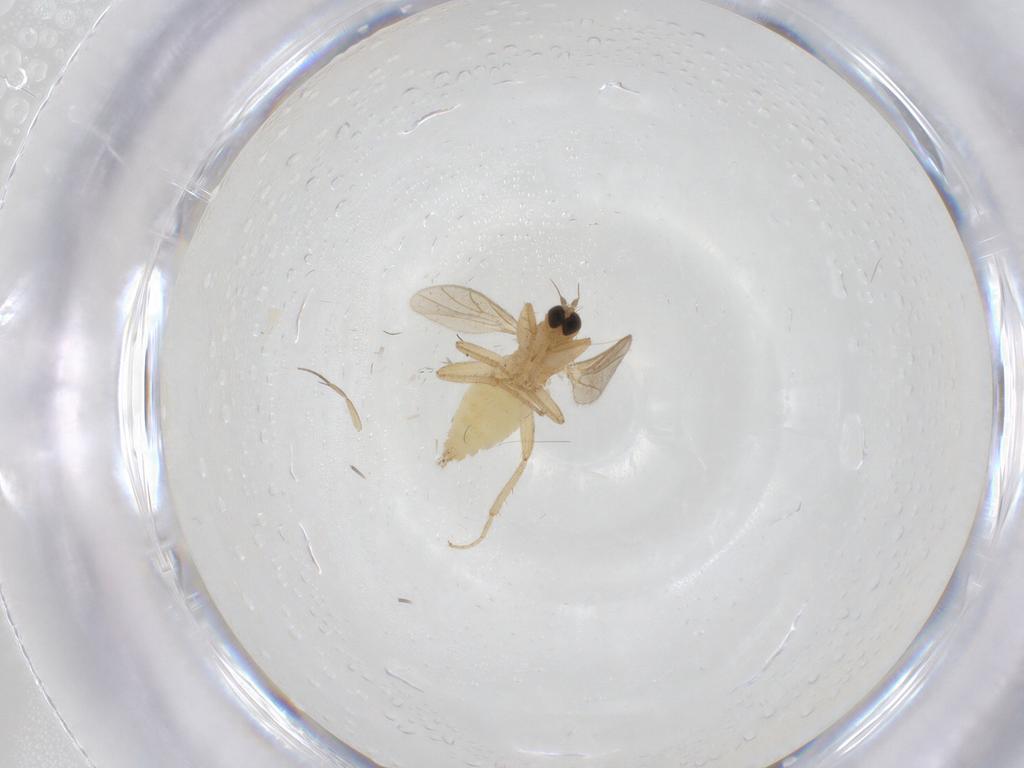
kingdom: Animalia
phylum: Arthropoda
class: Insecta
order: Diptera
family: Hybotidae
